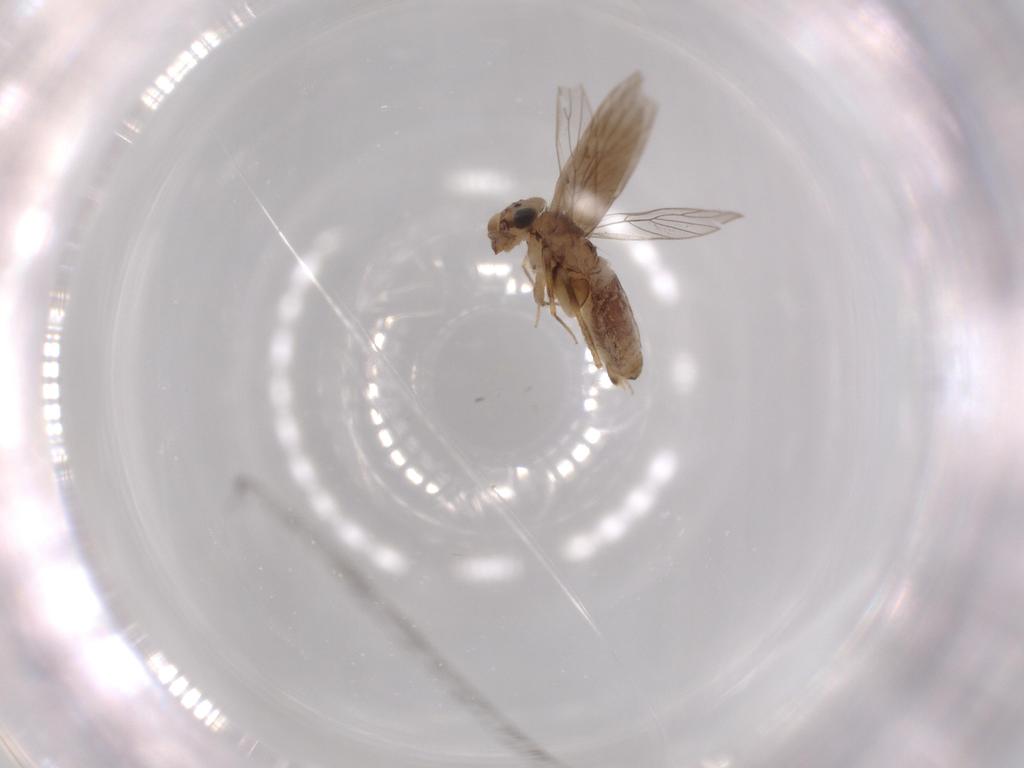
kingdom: Animalia
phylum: Arthropoda
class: Insecta
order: Psocodea
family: Lepidopsocidae
